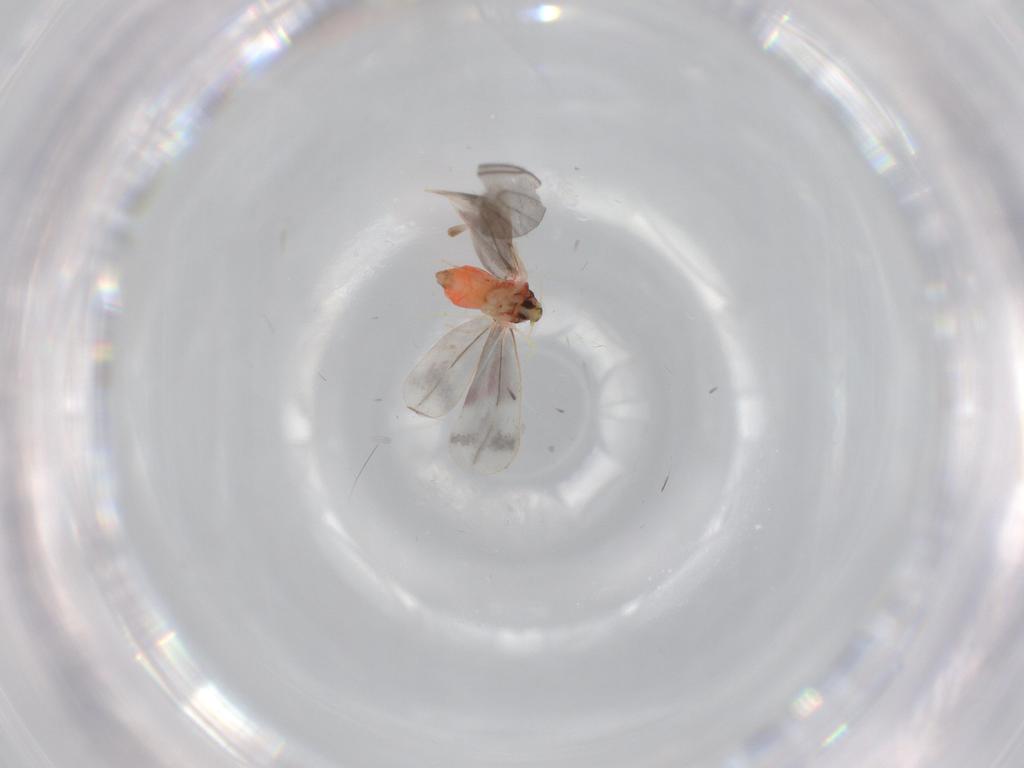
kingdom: Animalia
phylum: Arthropoda
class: Insecta
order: Hemiptera
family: Aleyrodidae
